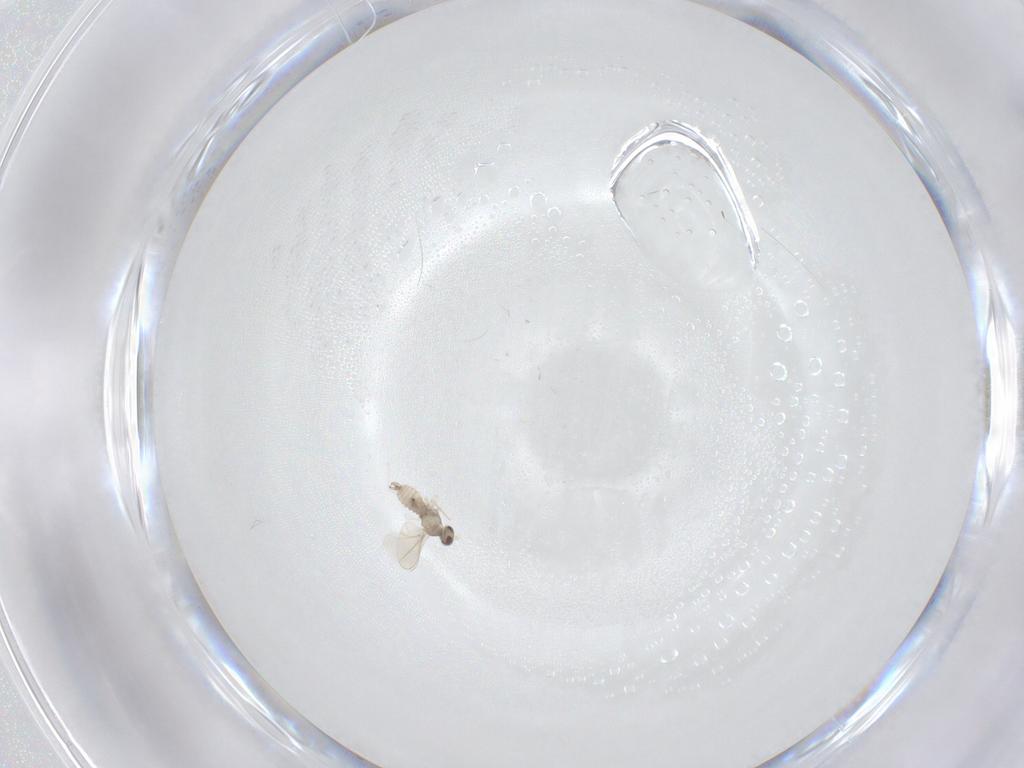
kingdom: Animalia
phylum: Arthropoda
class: Insecta
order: Diptera
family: Cecidomyiidae
